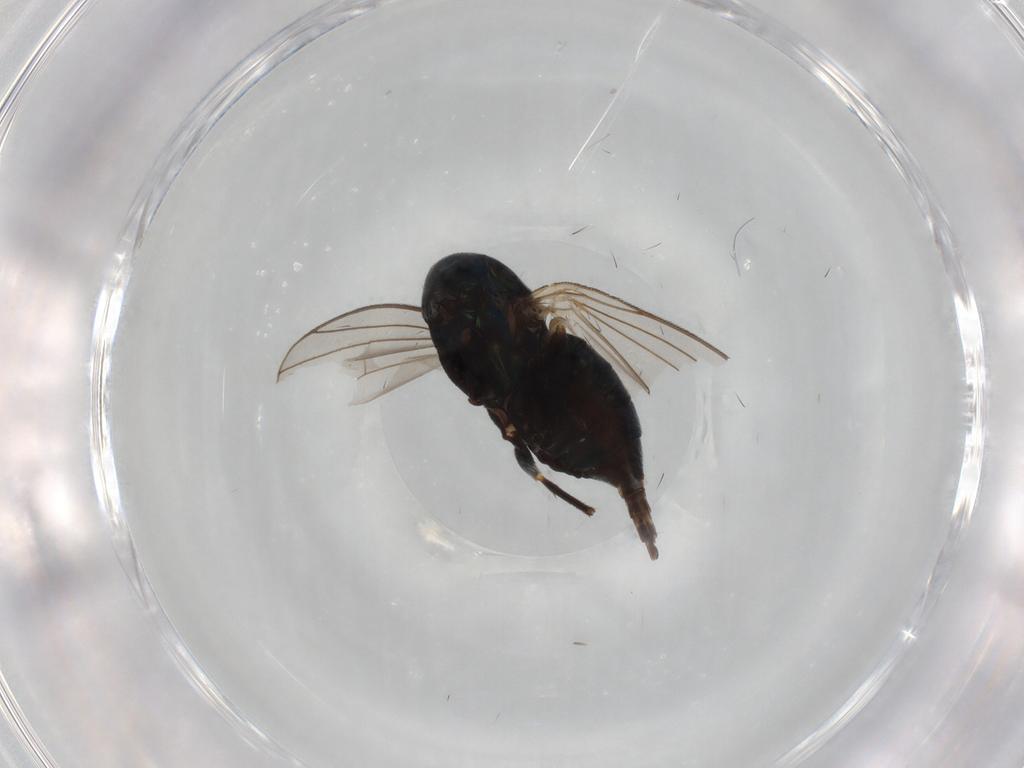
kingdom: Animalia
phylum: Arthropoda
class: Insecta
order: Diptera
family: Dolichopodidae
